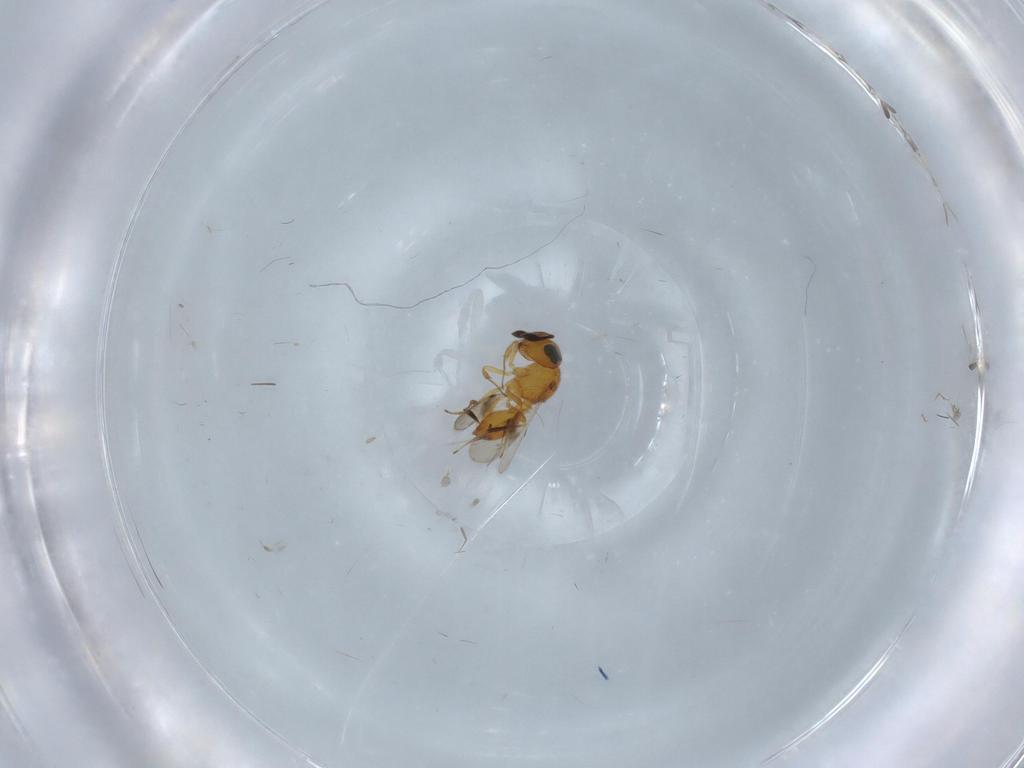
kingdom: Animalia
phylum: Arthropoda
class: Insecta
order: Hymenoptera
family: Scelionidae
